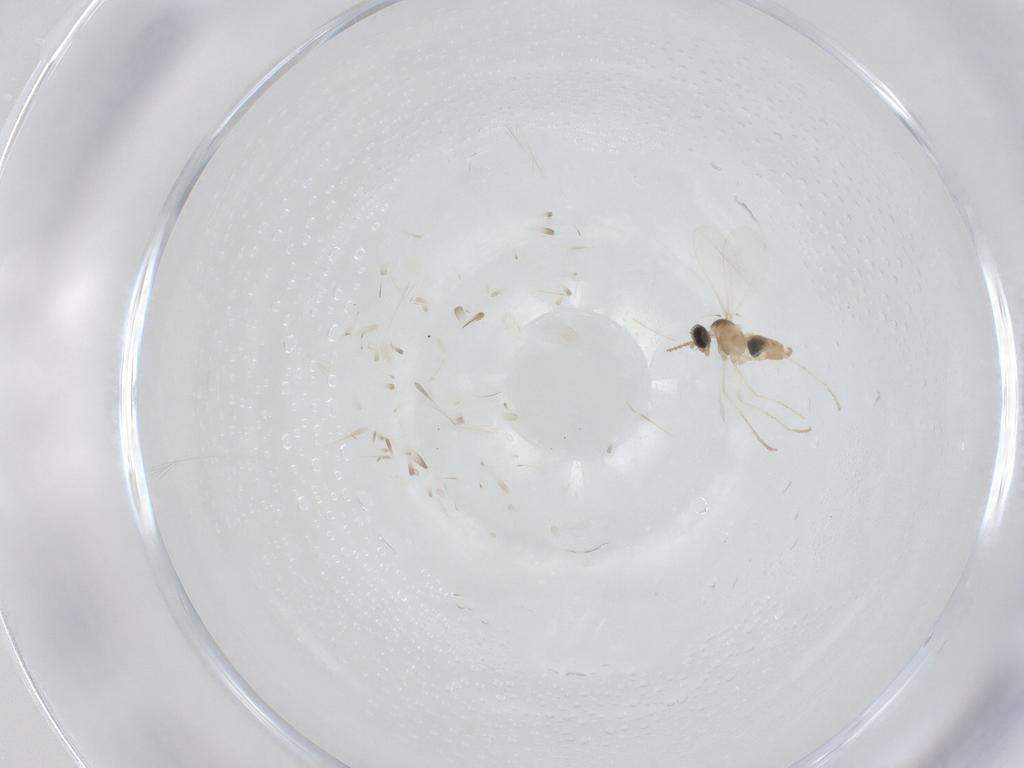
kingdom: Animalia
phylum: Arthropoda
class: Insecta
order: Diptera
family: Cecidomyiidae
